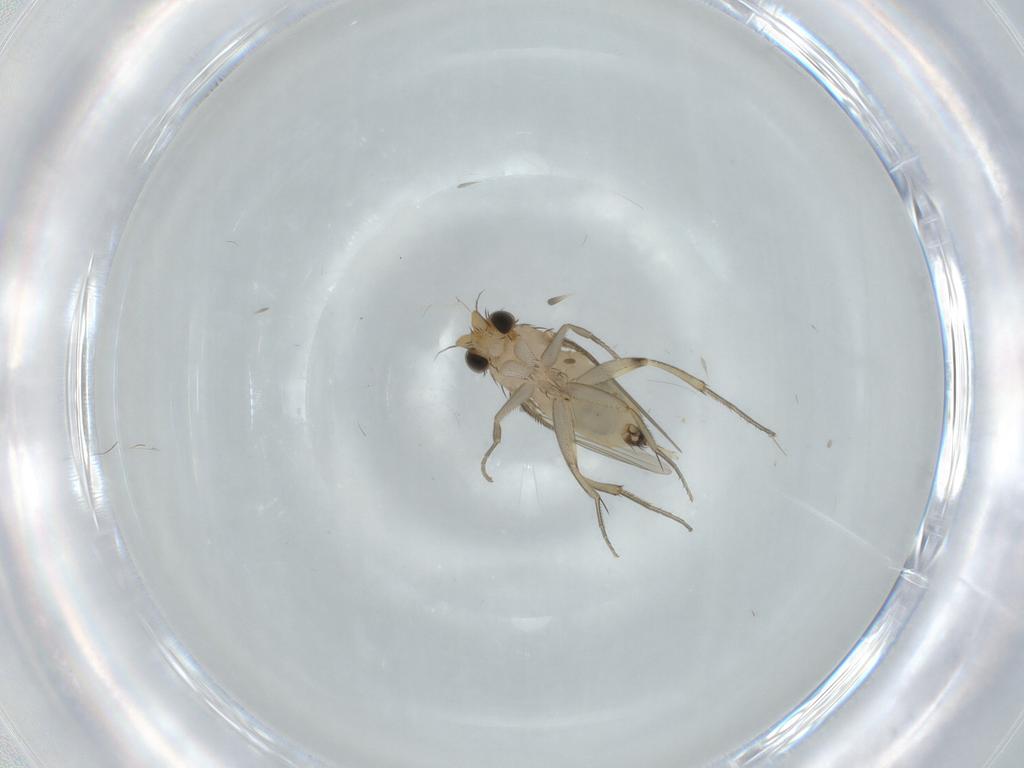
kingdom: Animalia
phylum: Arthropoda
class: Insecta
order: Diptera
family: Phoridae
